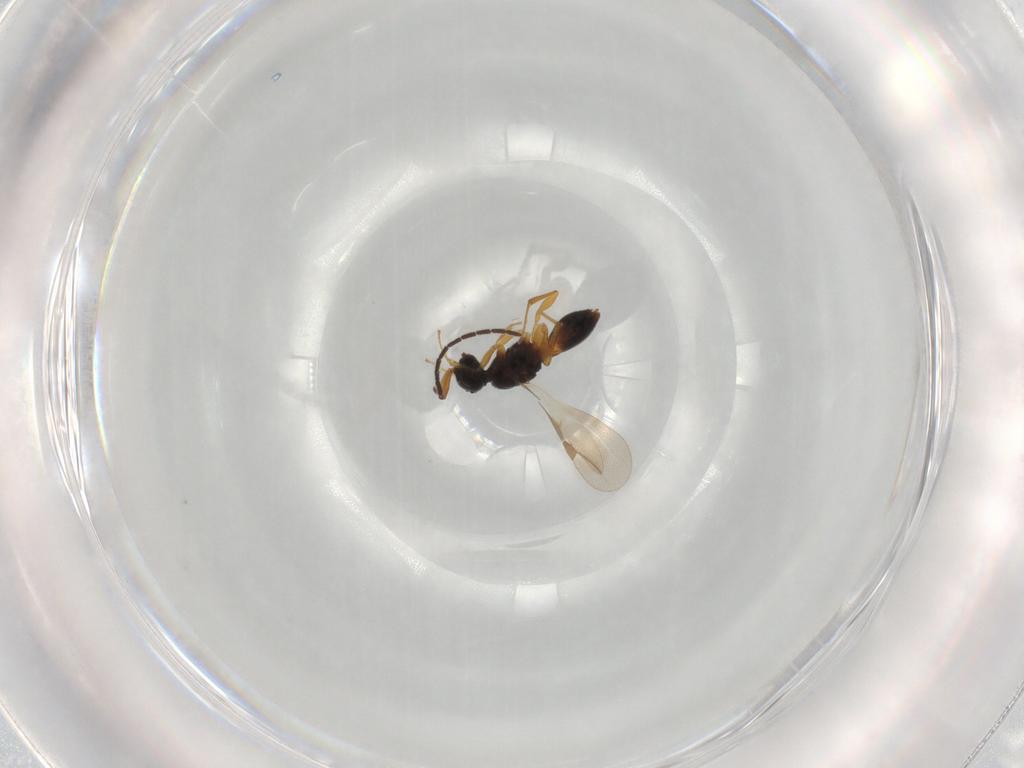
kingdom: Animalia
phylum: Arthropoda
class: Insecta
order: Hymenoptera
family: Megaspilidae
